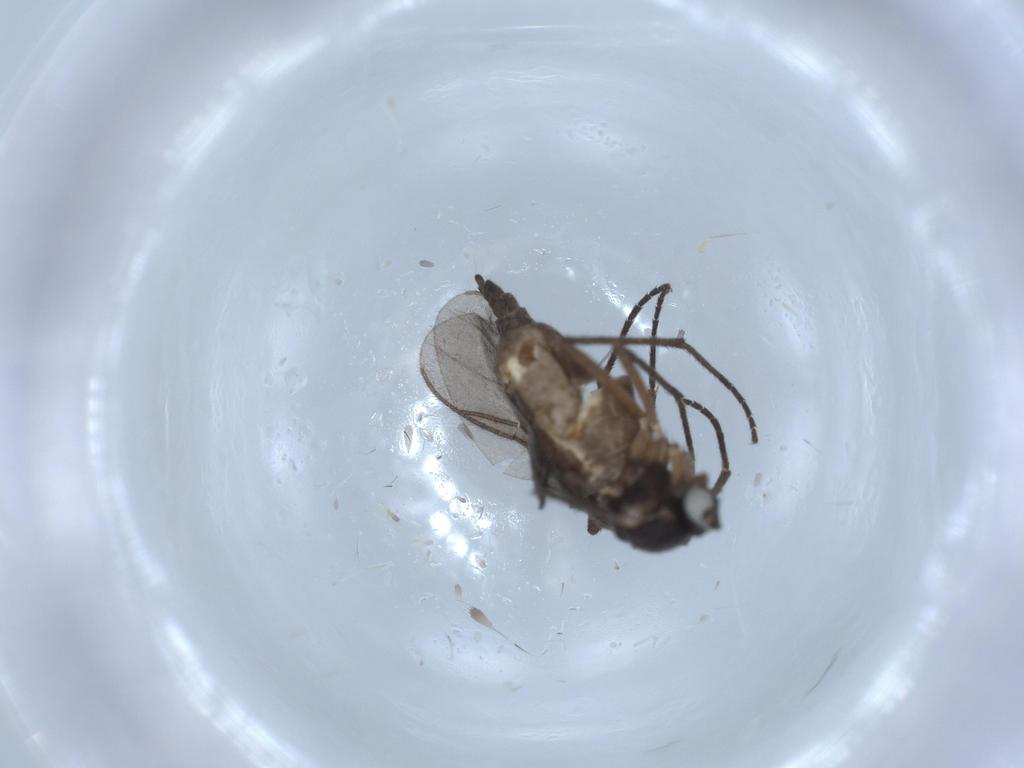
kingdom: Animalia
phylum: Arthropoda
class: Insecta
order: Diptera
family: Sciaridae
